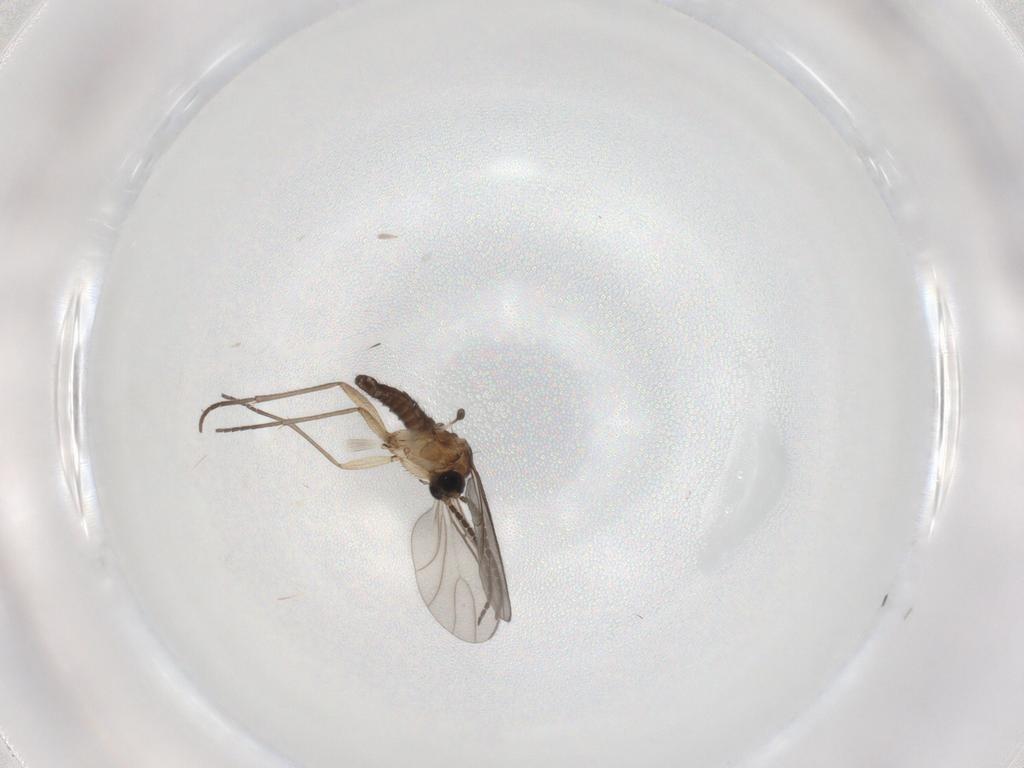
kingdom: Animalia
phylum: Arthropoda
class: Insecta
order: Diptera
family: Sciaridae
